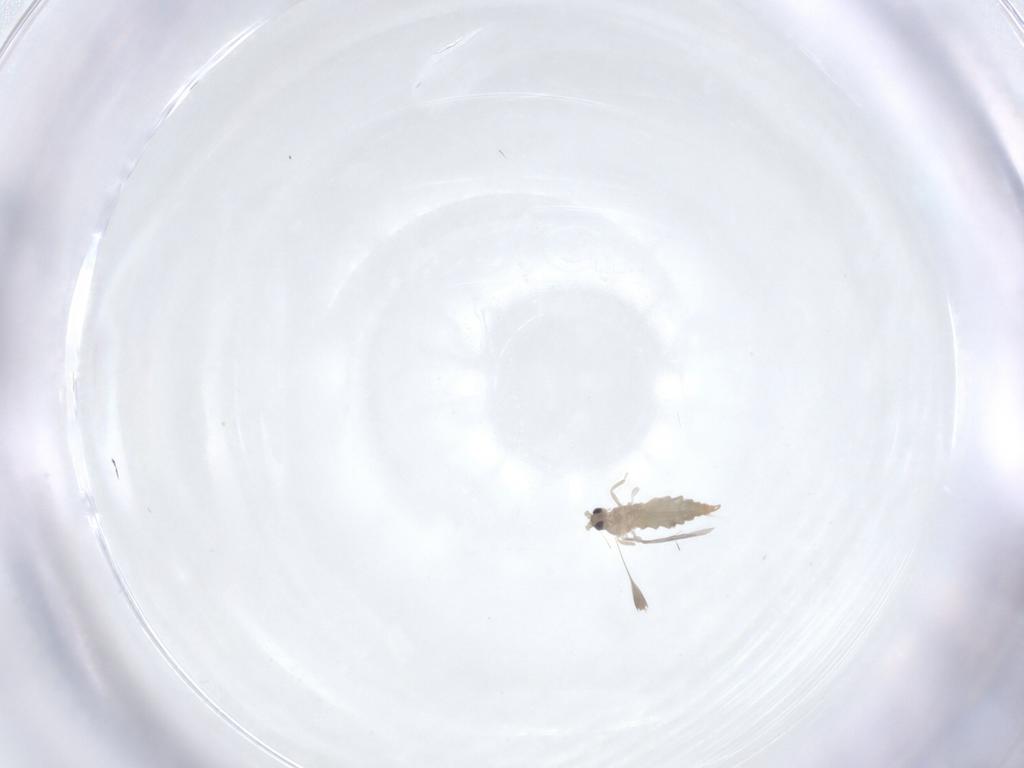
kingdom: Animalia
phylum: Arthropoda
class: Insecta
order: Diptera
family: Cecidomyiidae
